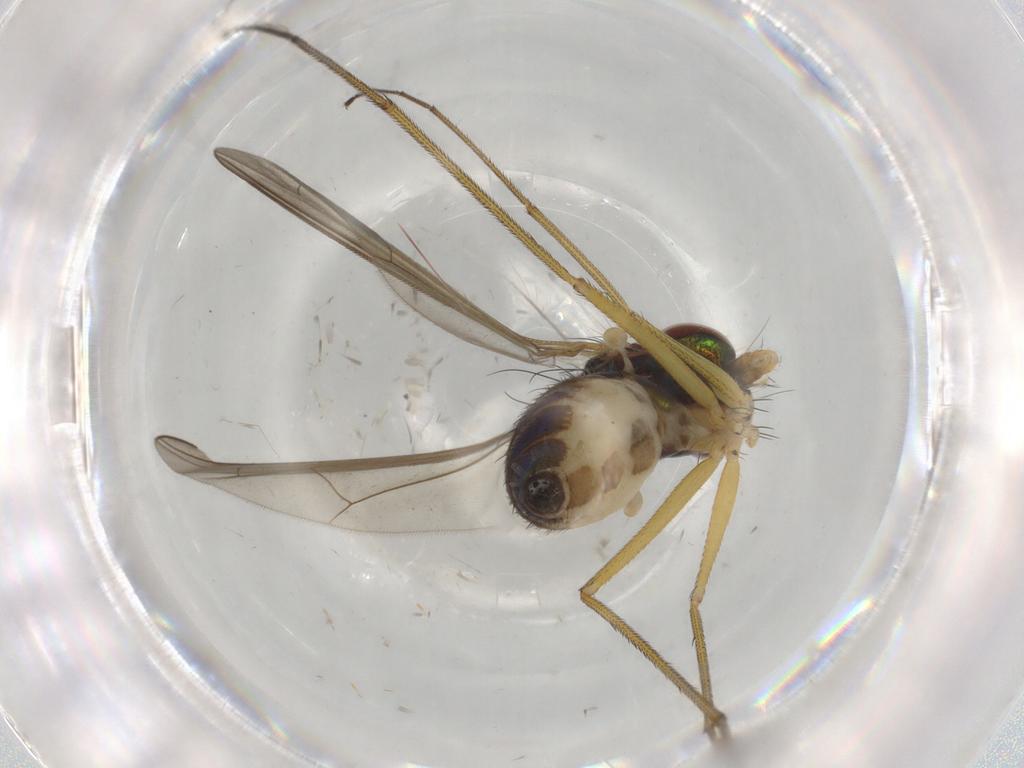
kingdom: Animalia
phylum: Arthropoda
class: Insecta
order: Diptera
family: Dolichopodidae
